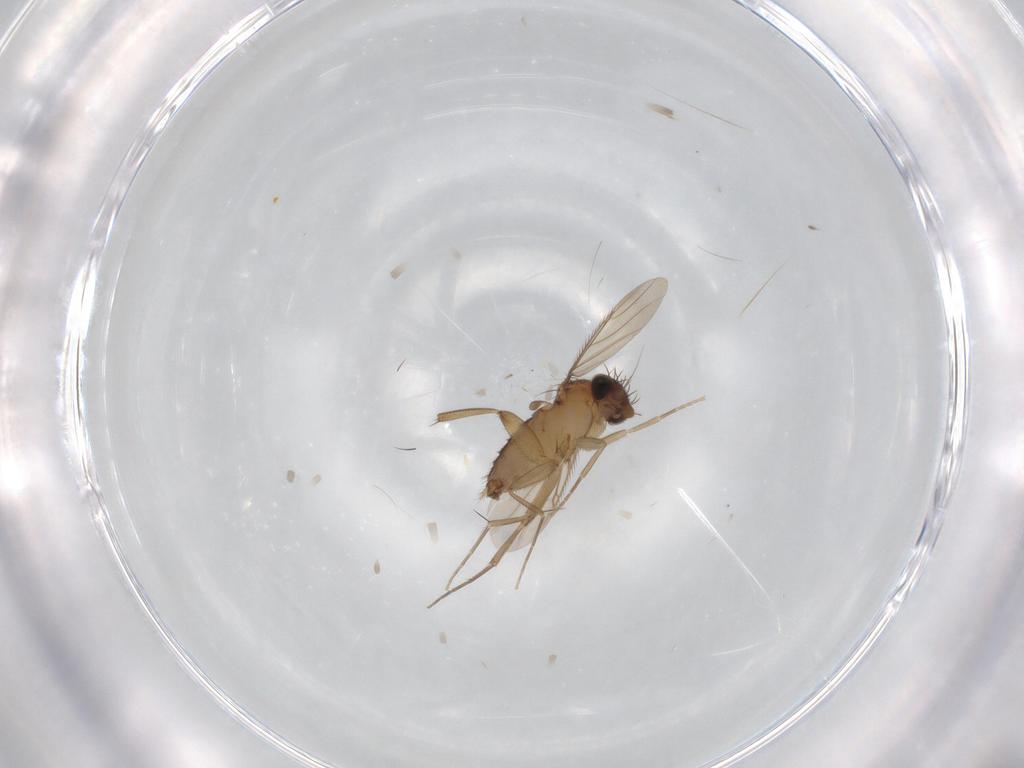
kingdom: Animalia
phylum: Arthropoda
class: Insecta
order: Diptera
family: Phoridae
